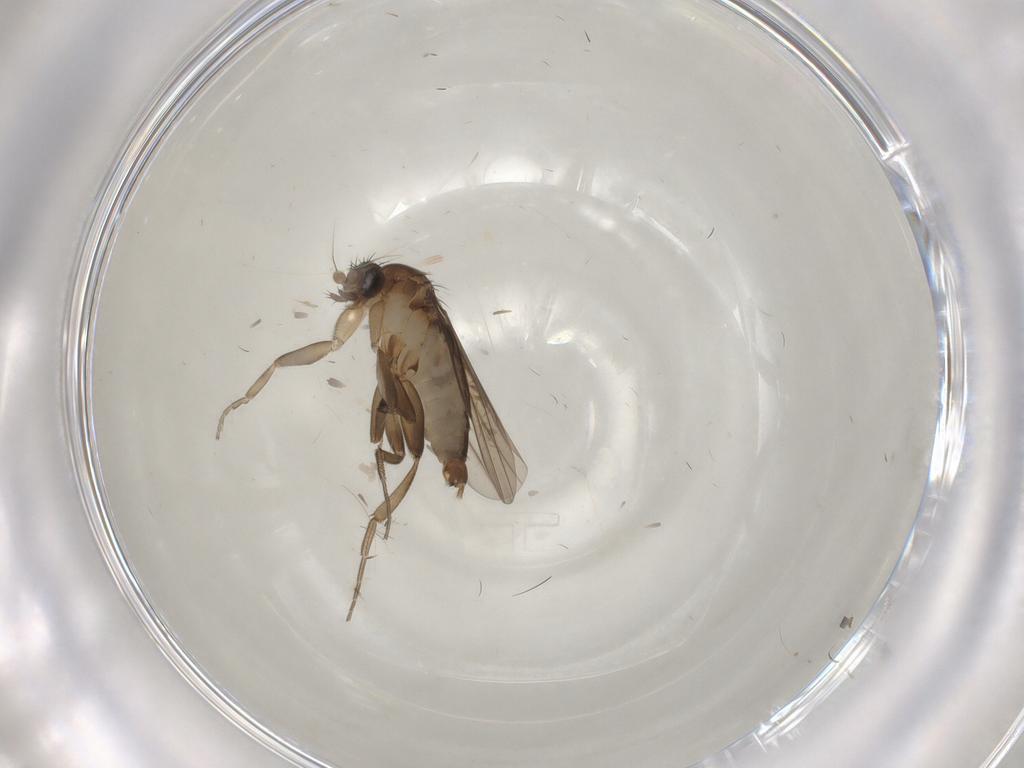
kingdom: Animalia
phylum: Arthropoda
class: Insecta
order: Diptera
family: Phoridae
